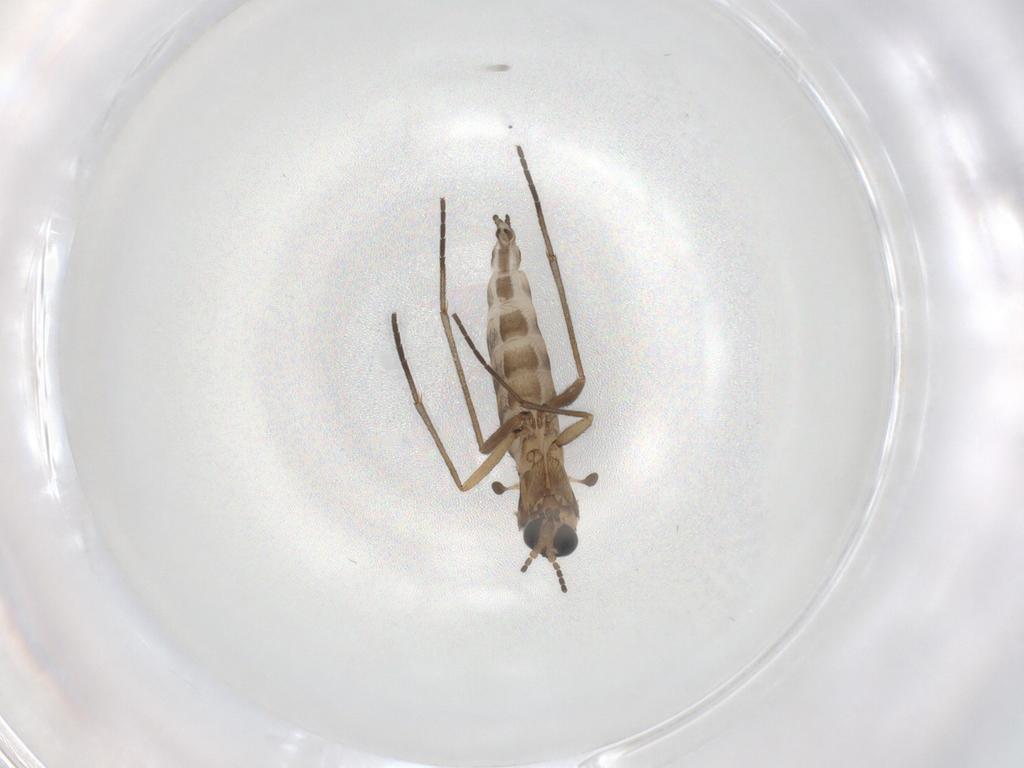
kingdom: Animalia
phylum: Arthropoda
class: Insecta
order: Diptera
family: Sciaridae
